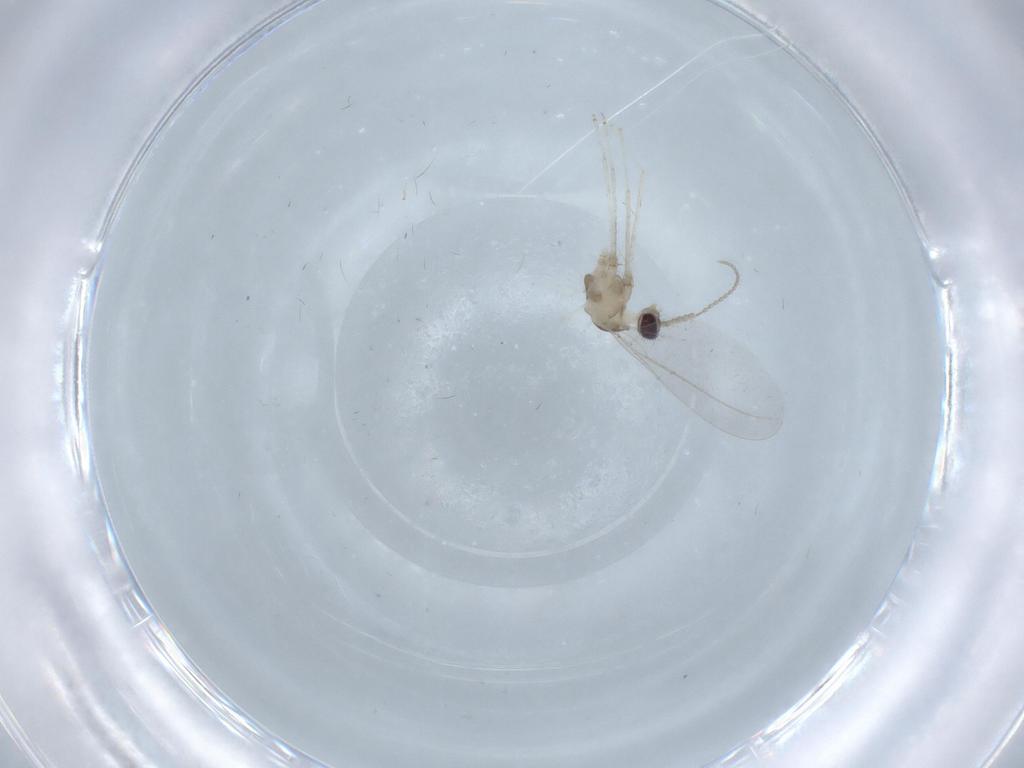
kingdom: Animalia
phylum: Arthropoda
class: Insecta
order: Diptera
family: Cecidomyiidae
